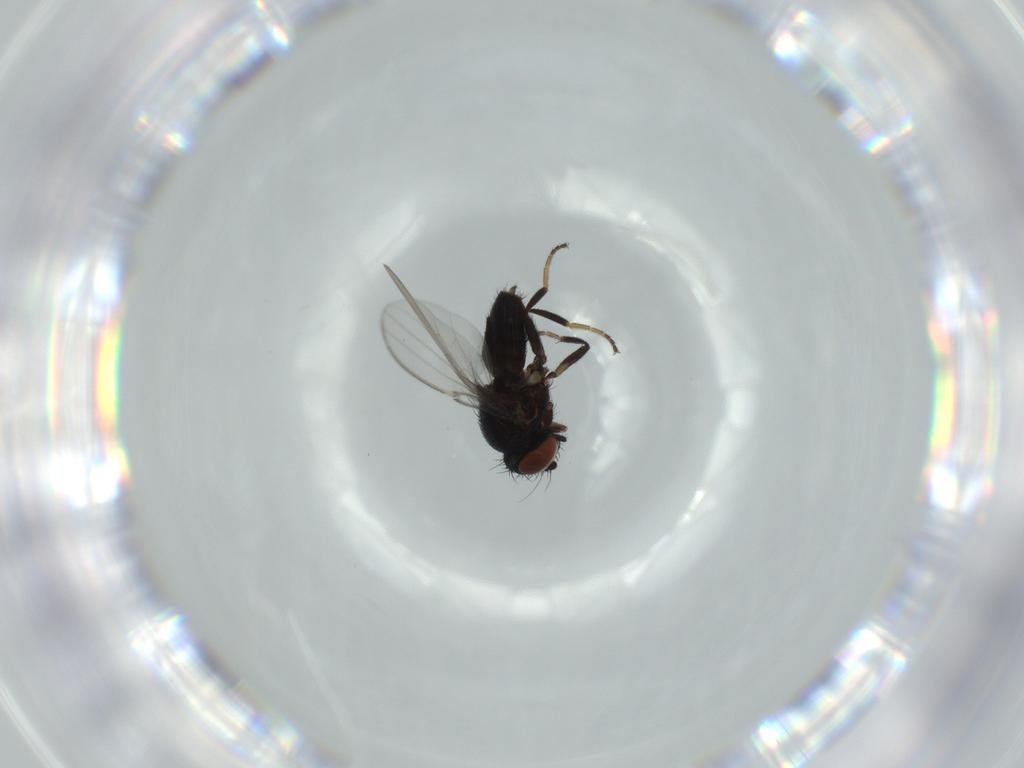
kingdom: Animalia
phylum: Arthropoda
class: Insecta
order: Diptera
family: Milichiidae
